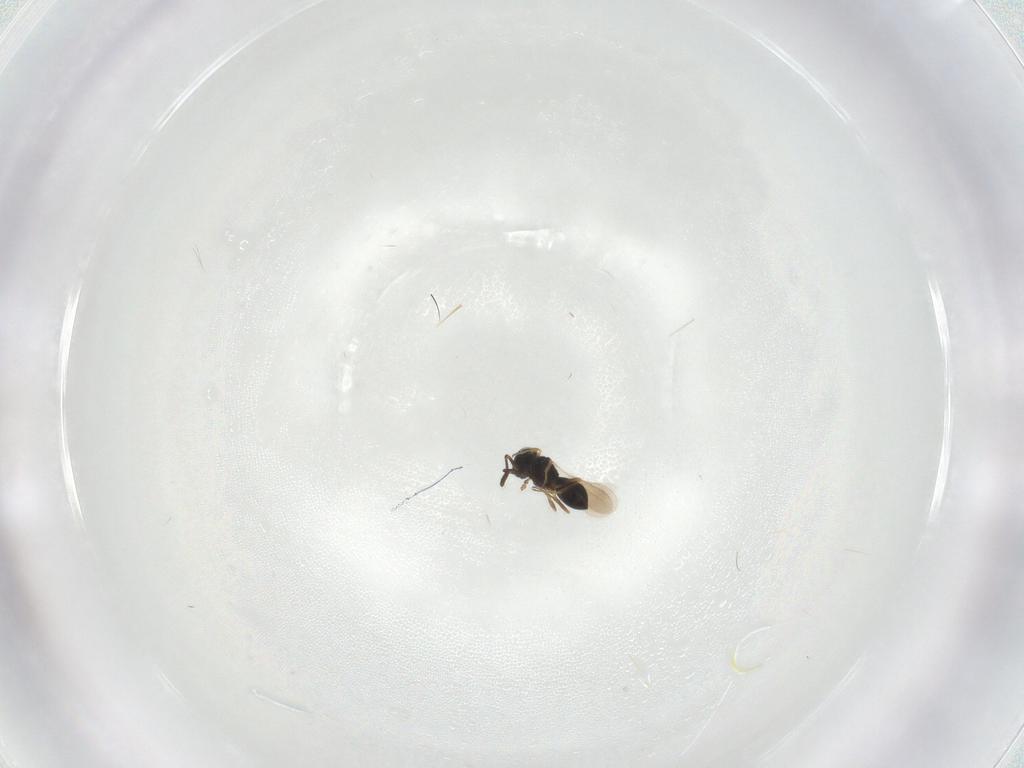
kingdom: Animalia
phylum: Arthropoda
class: Insecta
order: Hymenoptera
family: Scelionidae
